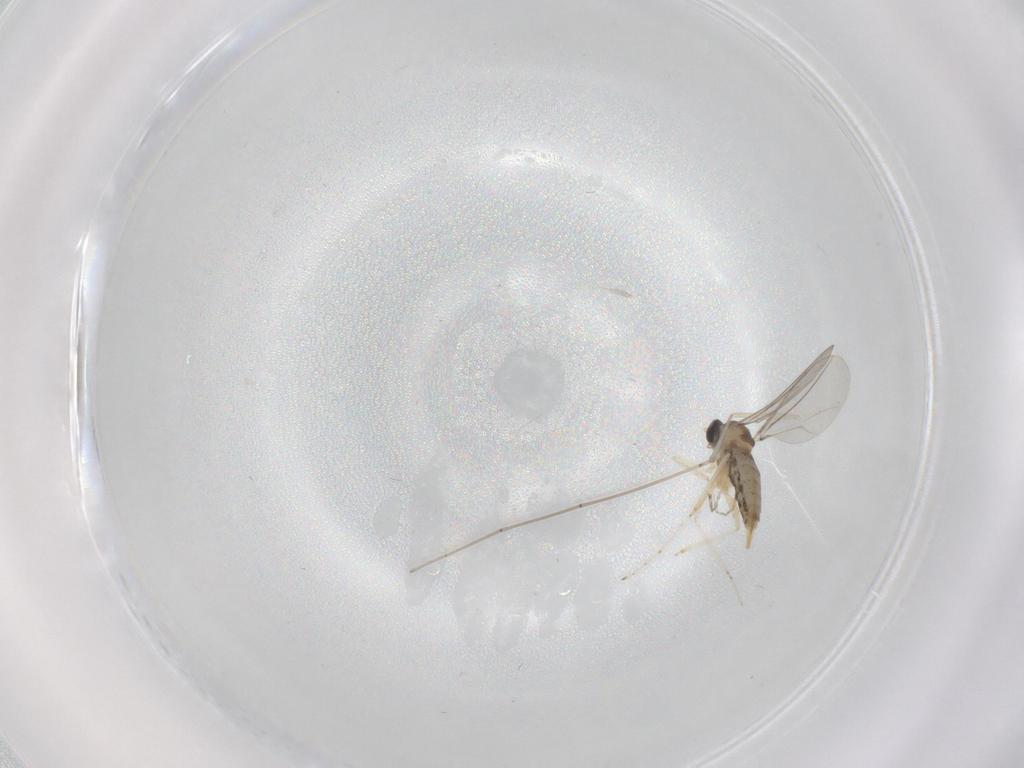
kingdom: Animalia
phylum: Arthropoda
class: Insecta
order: Diptera
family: Cecidomyiidae
